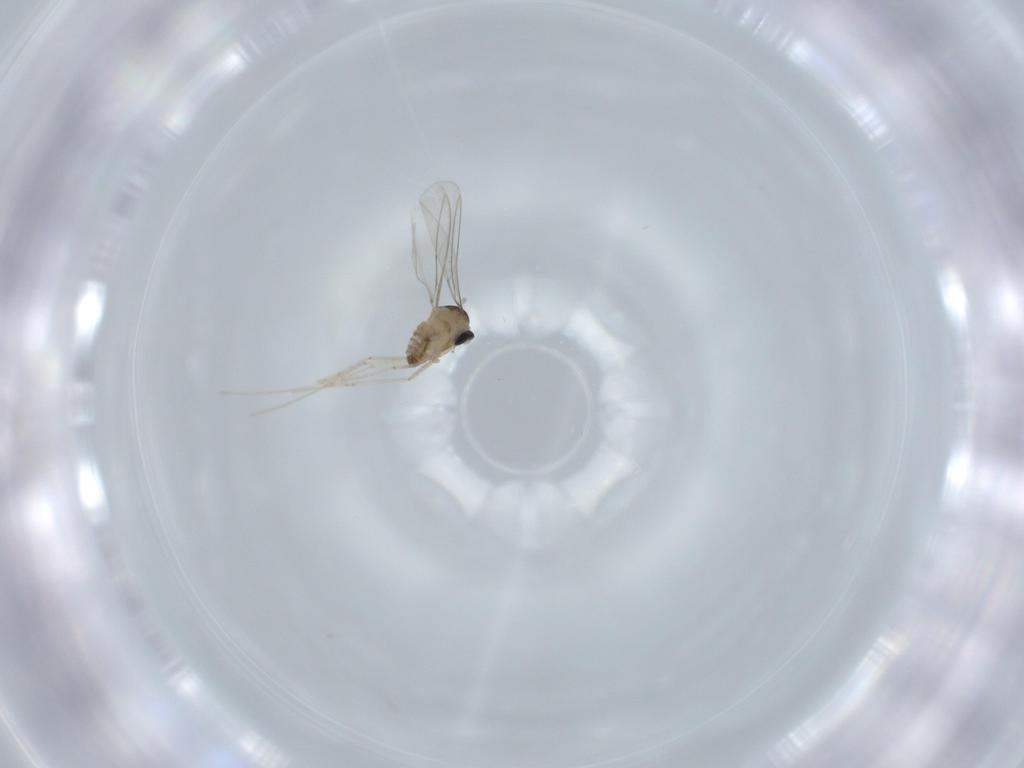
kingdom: Animalia
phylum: Arthropoda
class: Insecta
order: Diptera
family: Cecidomyiidae
